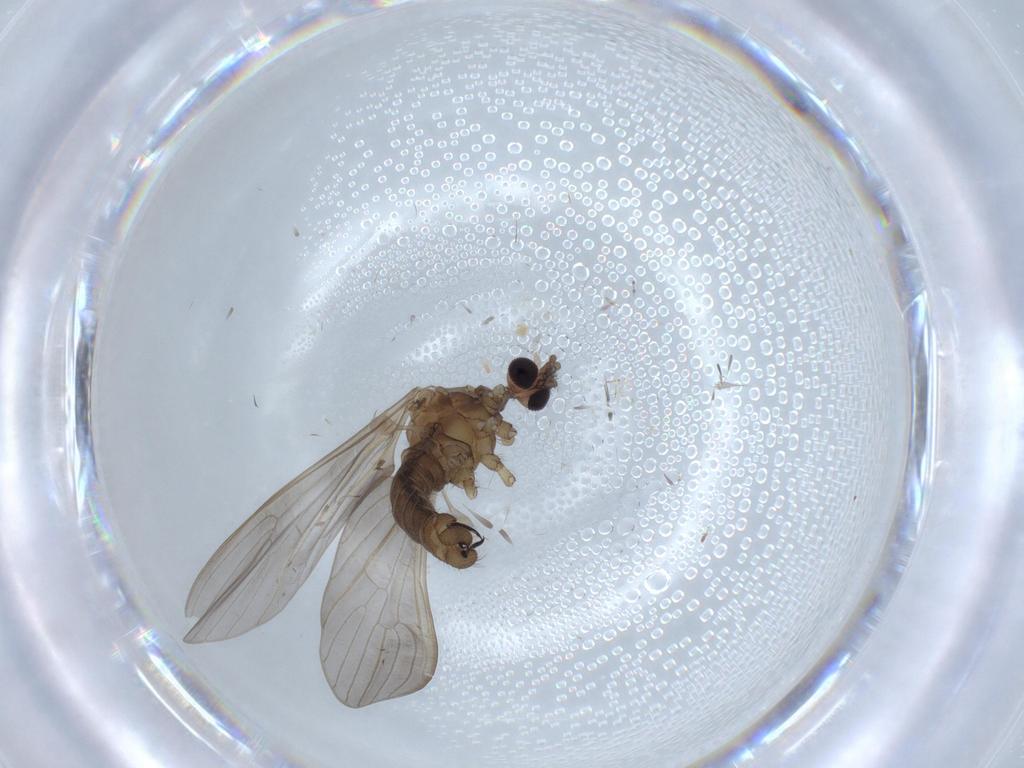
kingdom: Animalia
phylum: Arthropoda
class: Insecta
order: Diptera
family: Limoniidae
